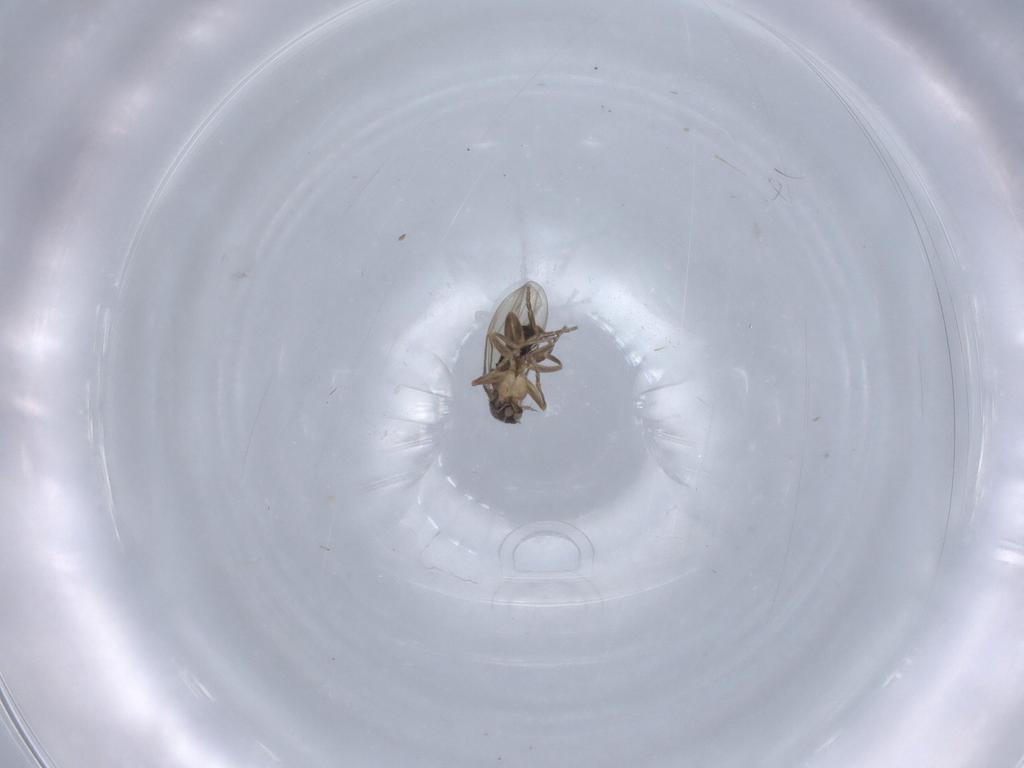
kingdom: Animalia
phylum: Arthropoda
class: Insecta
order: Diptera
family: Phoridae
